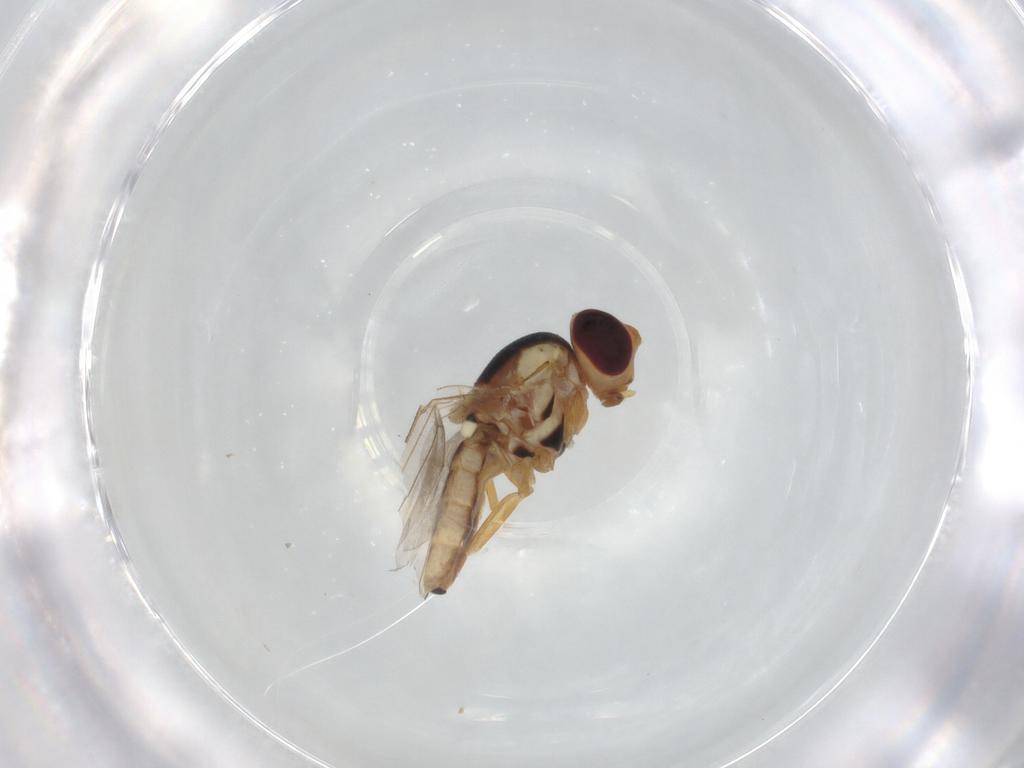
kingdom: Animalia
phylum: Arthropoda
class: Insecta
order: Diptera
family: Chloropidae
